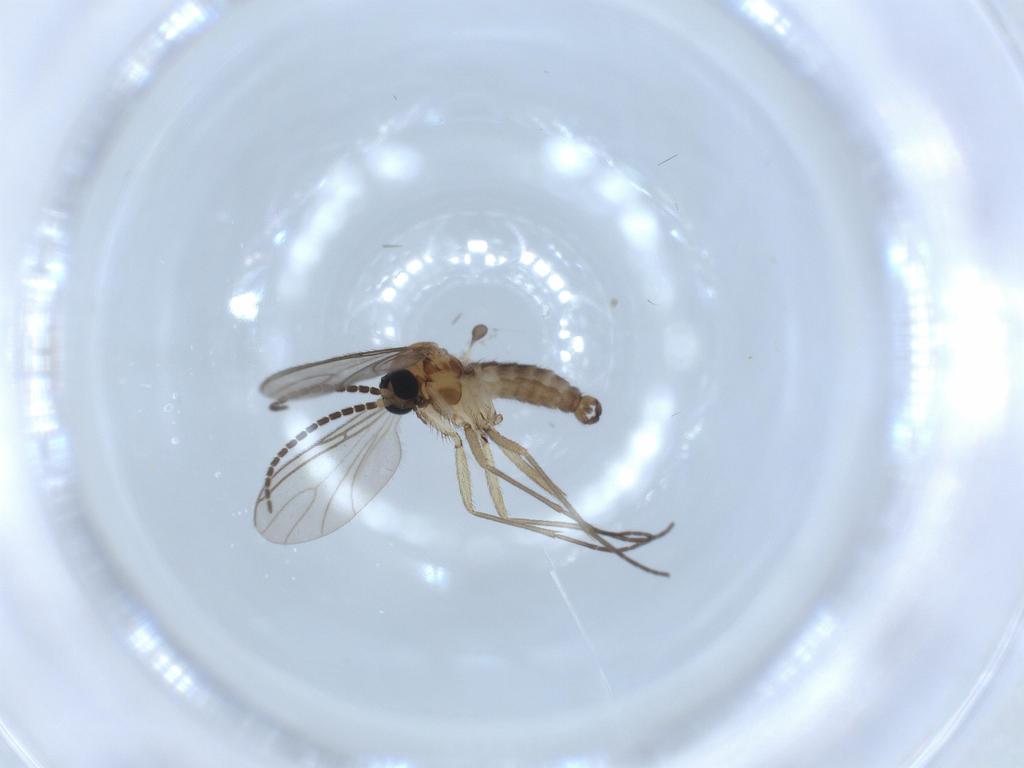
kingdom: Animalia
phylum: Arthropoda
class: Insecta
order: Diptera
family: Sciaridae
